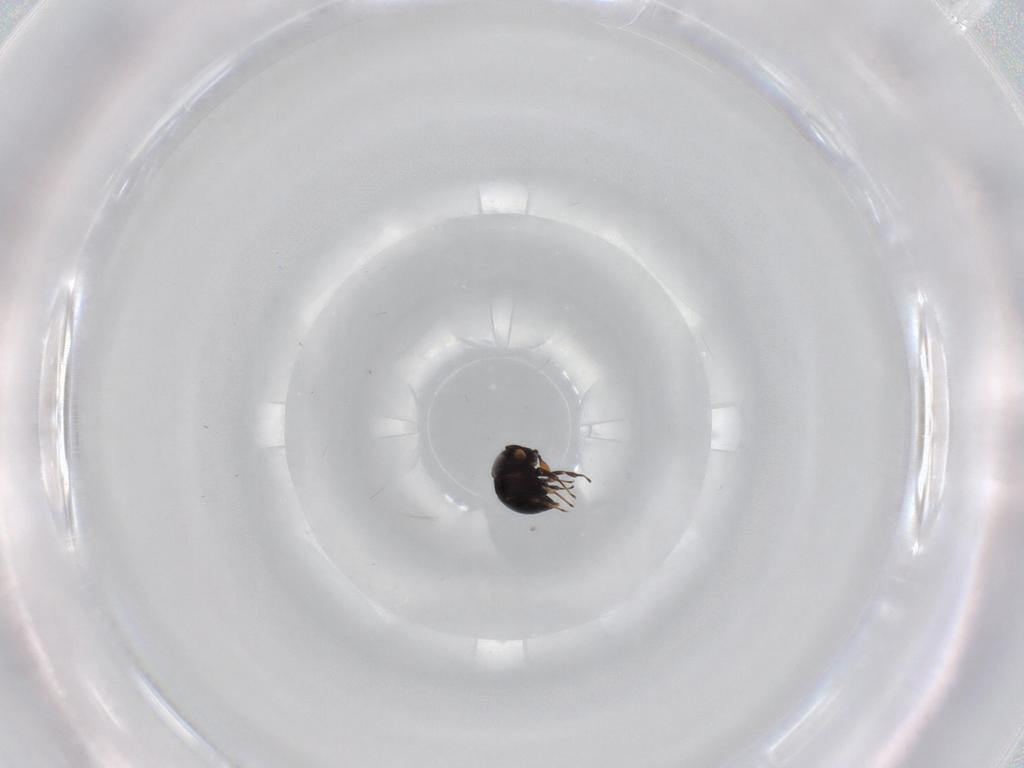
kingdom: Animalia
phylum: Arthropoda
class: Insecta
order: Hymenoptera
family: Scelionidae
